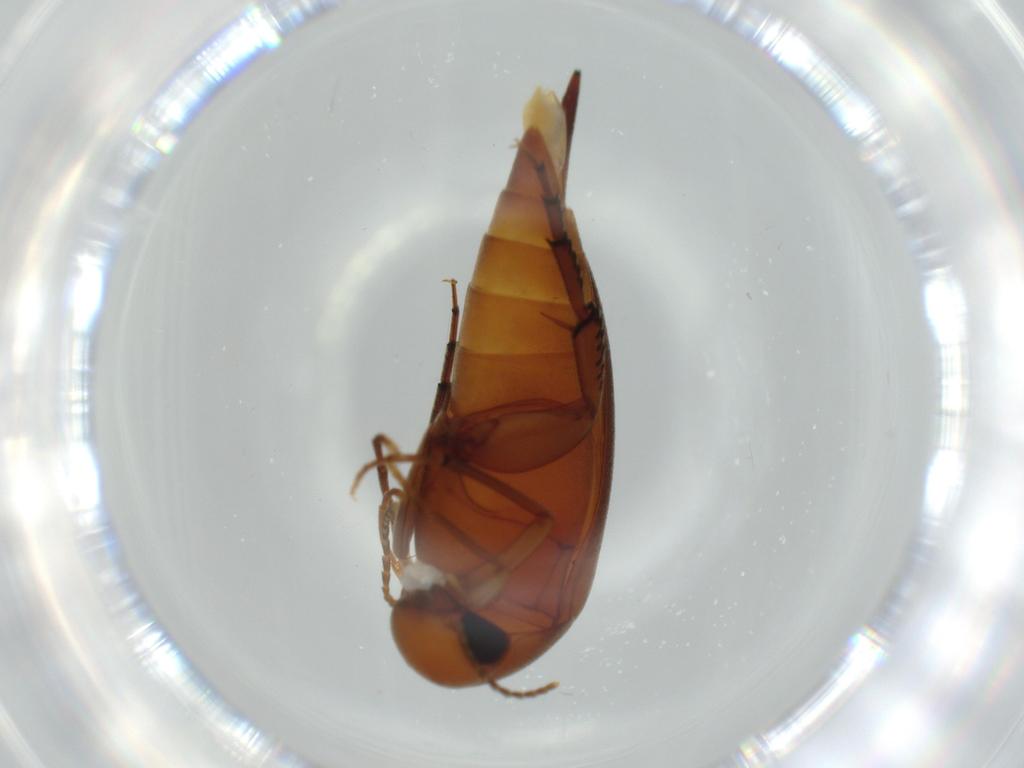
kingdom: Animalia
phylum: Arthropoda
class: Insecta
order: Coleoptera
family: Mordellidae
